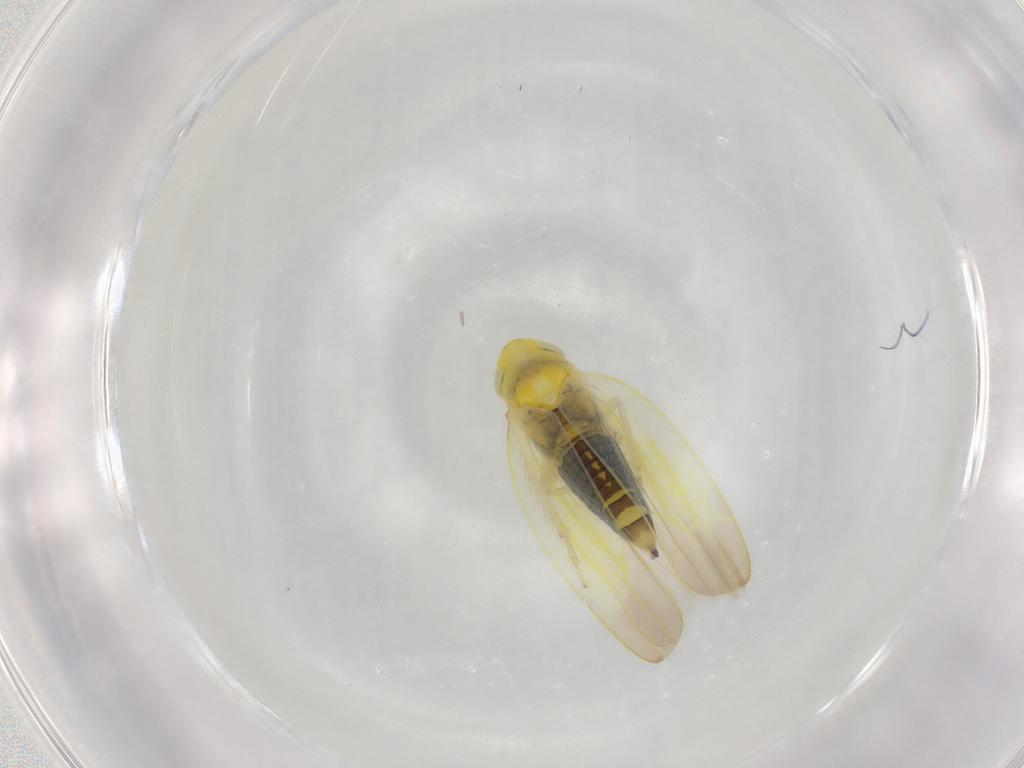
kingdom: Animalia
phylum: Arthropoda
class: Insecta
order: Hemiptera
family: Cicadellidae
